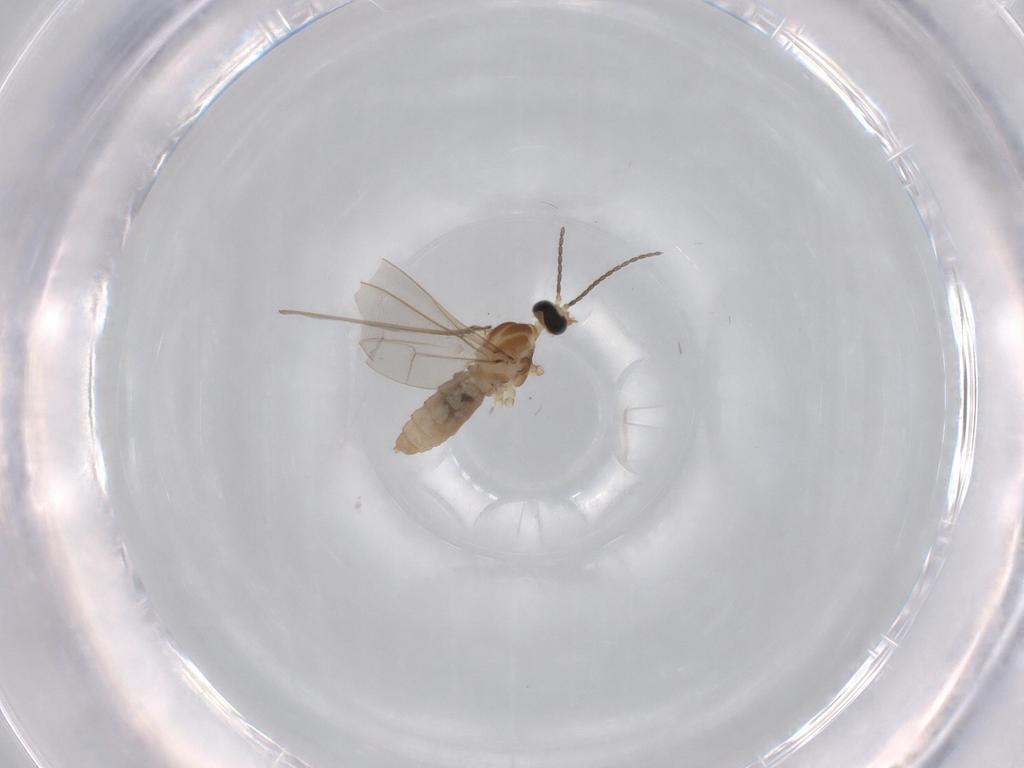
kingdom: Animalia
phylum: Arthropoda
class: Insecta
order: Diptera
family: Cecidomyiidae
